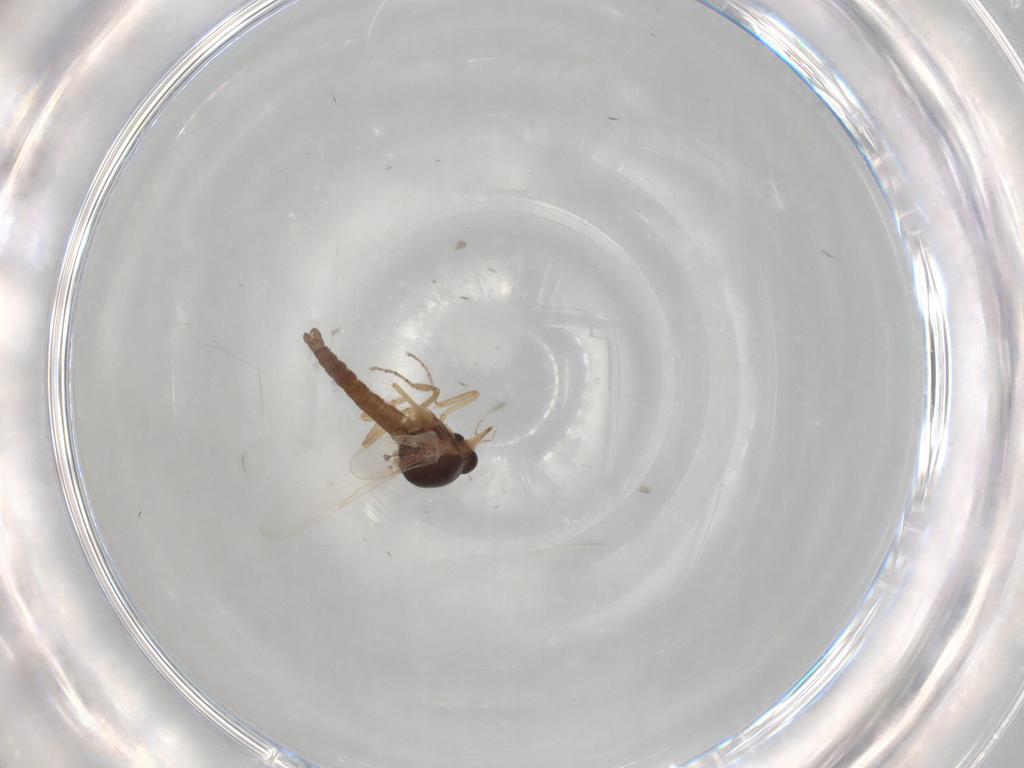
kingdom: Animalia
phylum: Arthropoda
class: Insecta
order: Diptera
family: Ceratopogonidae
